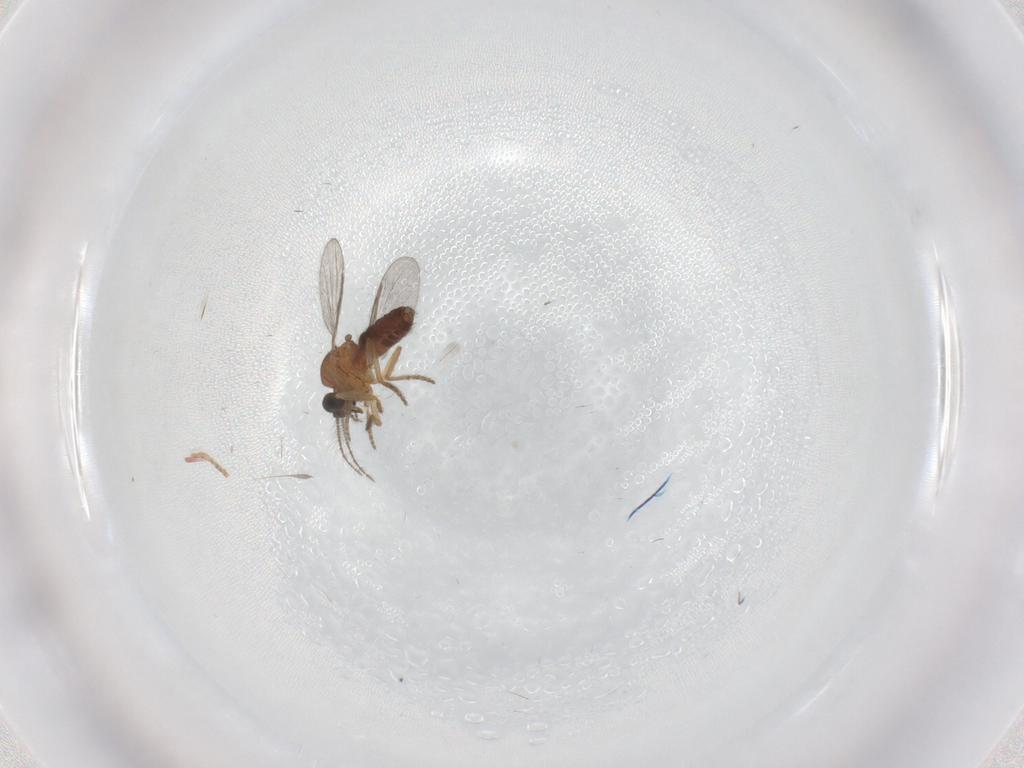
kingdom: Animalia
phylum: Arthropoda
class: Insecta
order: Diptera
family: Ceratopogonidae
